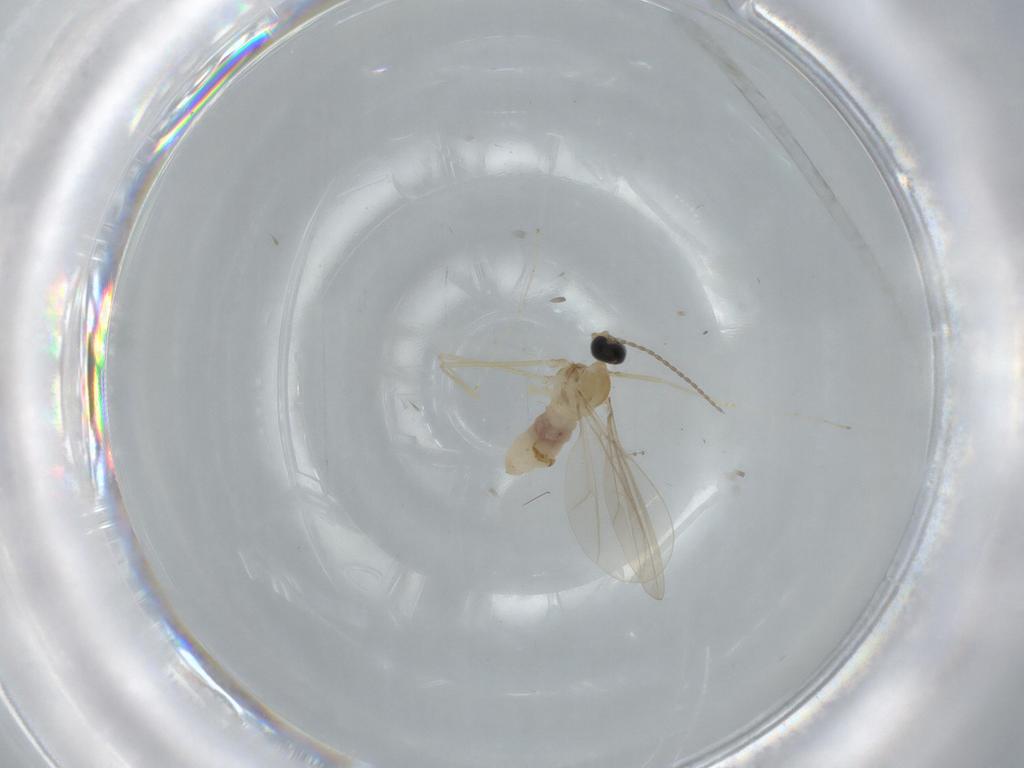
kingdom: Animalia
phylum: Arthropoda
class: Insecta
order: Diptera
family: Cecidomyiidae
